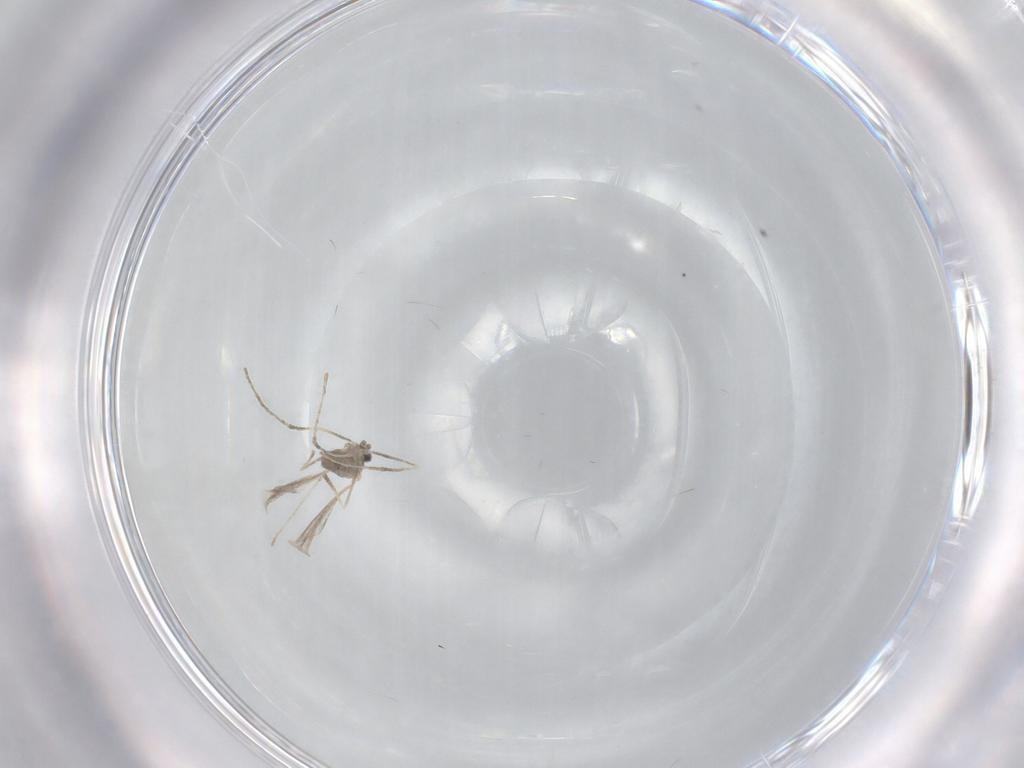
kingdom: Animalia
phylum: Arthropoda
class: Insecta
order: Diptera
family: Cecidomyiidae
